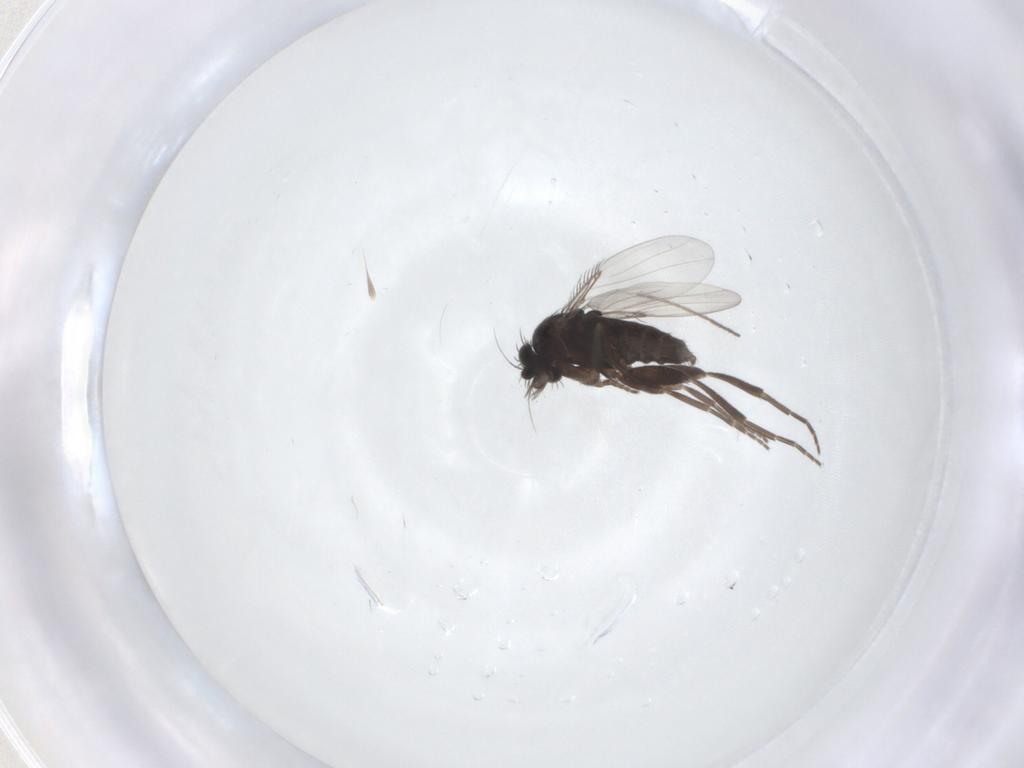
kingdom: Animalia
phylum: Arthropoda
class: Insecta
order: Diptera
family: Phoridae
